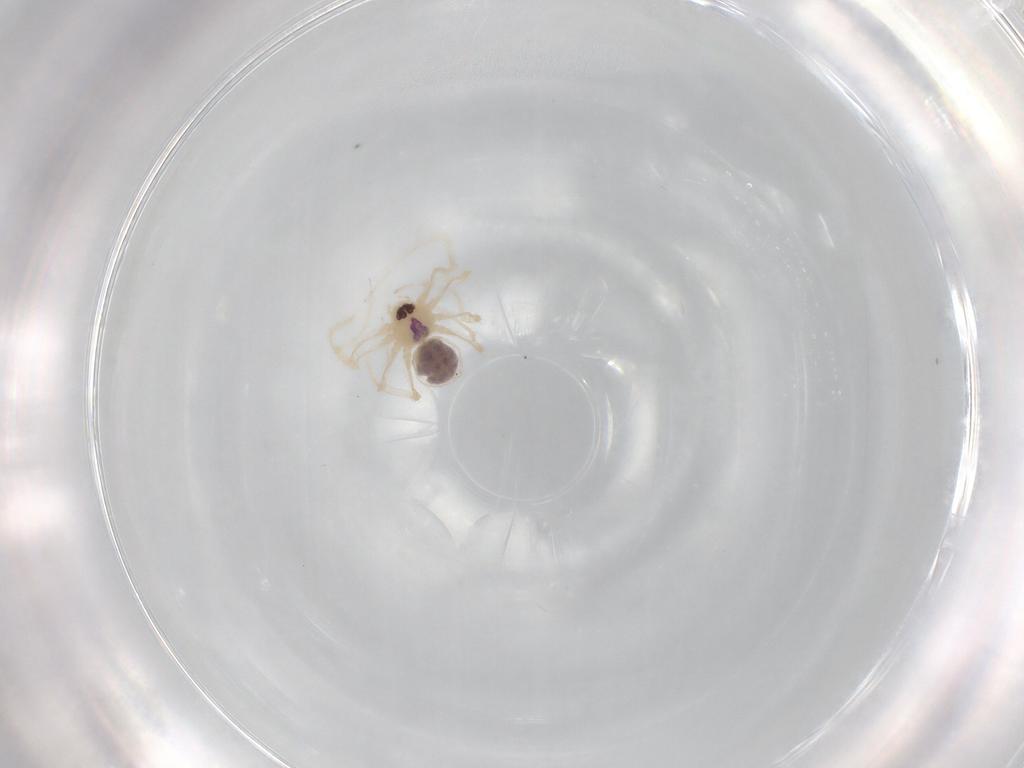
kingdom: Animalia
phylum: Arthropoda
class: Arachnida
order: Araneae
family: Pholcidae
